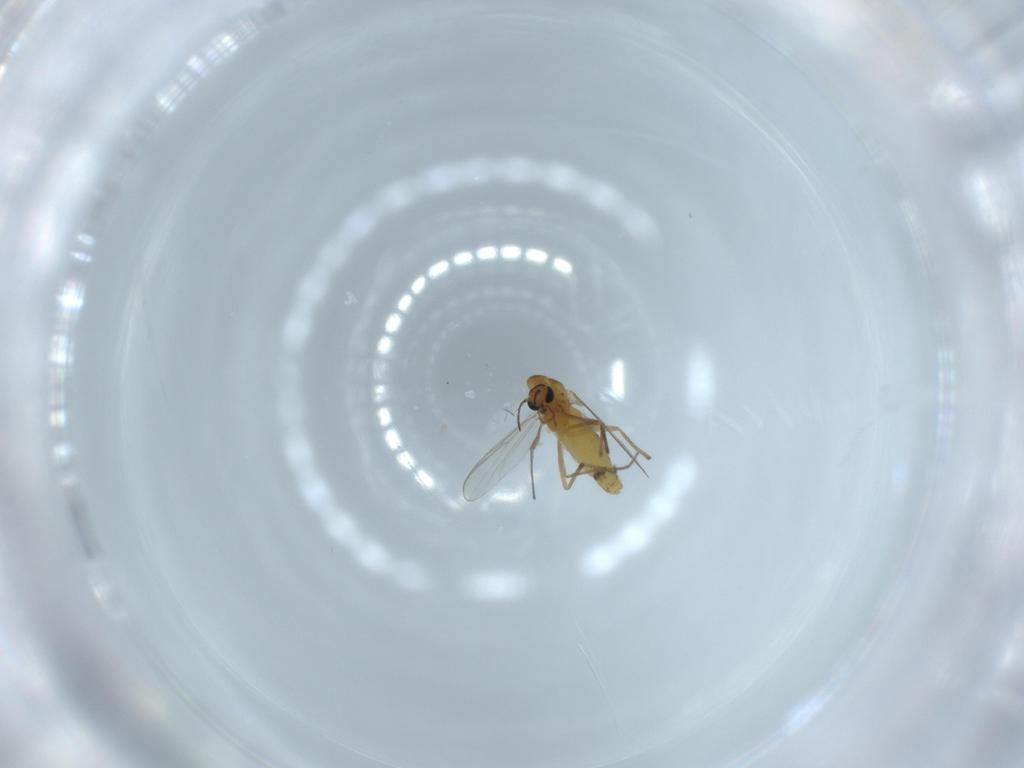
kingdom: Animalia
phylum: Arthropoda
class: Insecta
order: Diptera
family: Chironomidae
